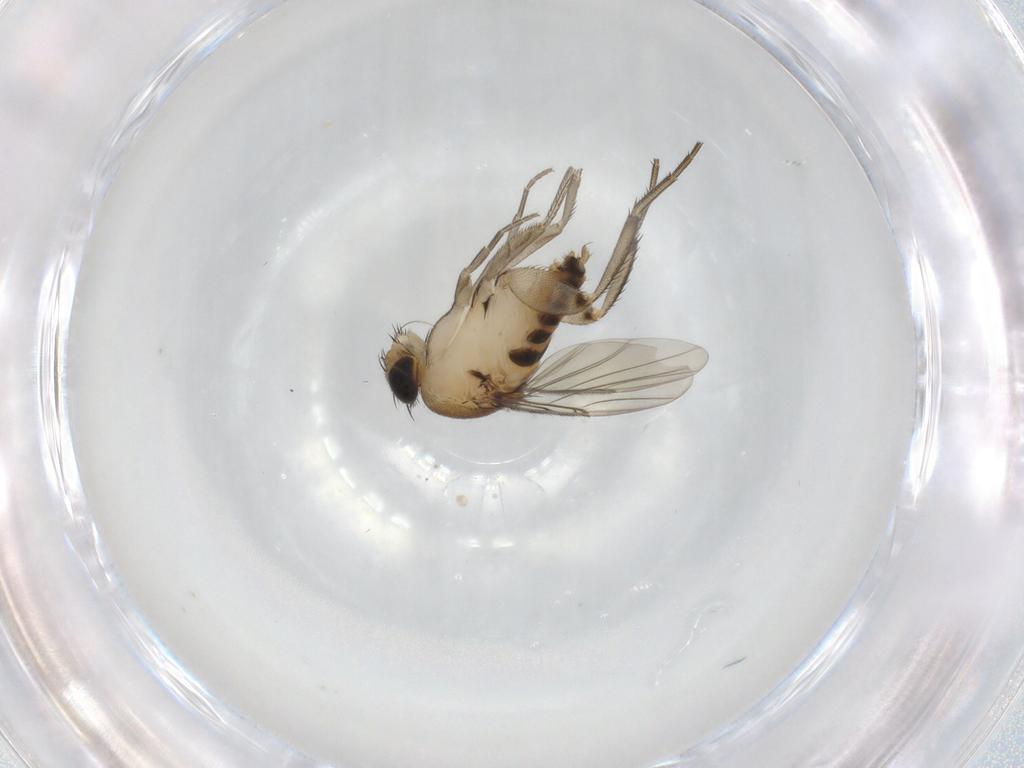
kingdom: Animalia
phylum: Arthropoda
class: Insecta
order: Diptera
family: Phoridae
